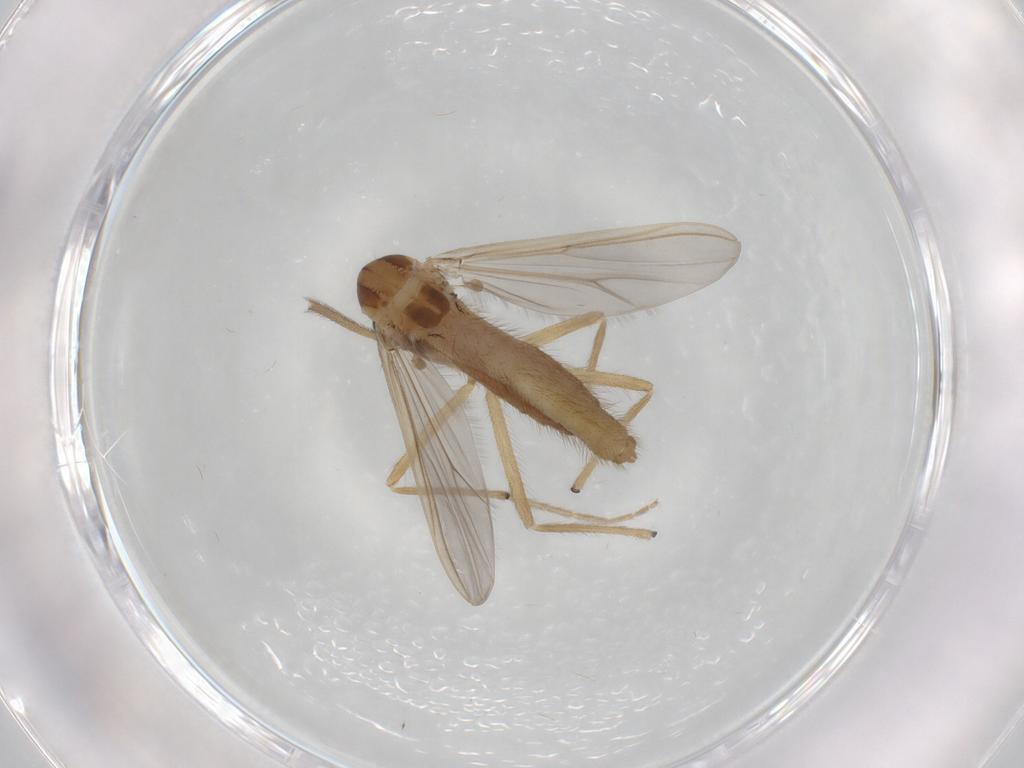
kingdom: Animalia
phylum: Arthropoda
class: Insecta
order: Diptera
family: Chironomidae
